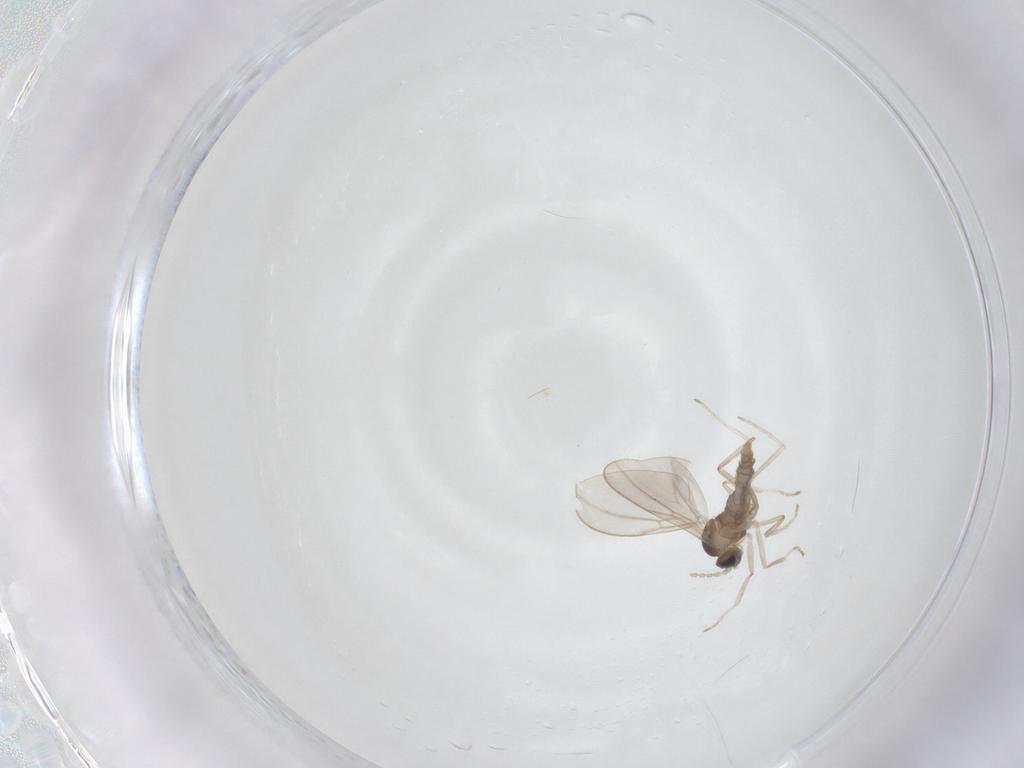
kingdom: Animalia
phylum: Arthropoda
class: Insecta
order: Diptera
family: Cecidomyiidae
